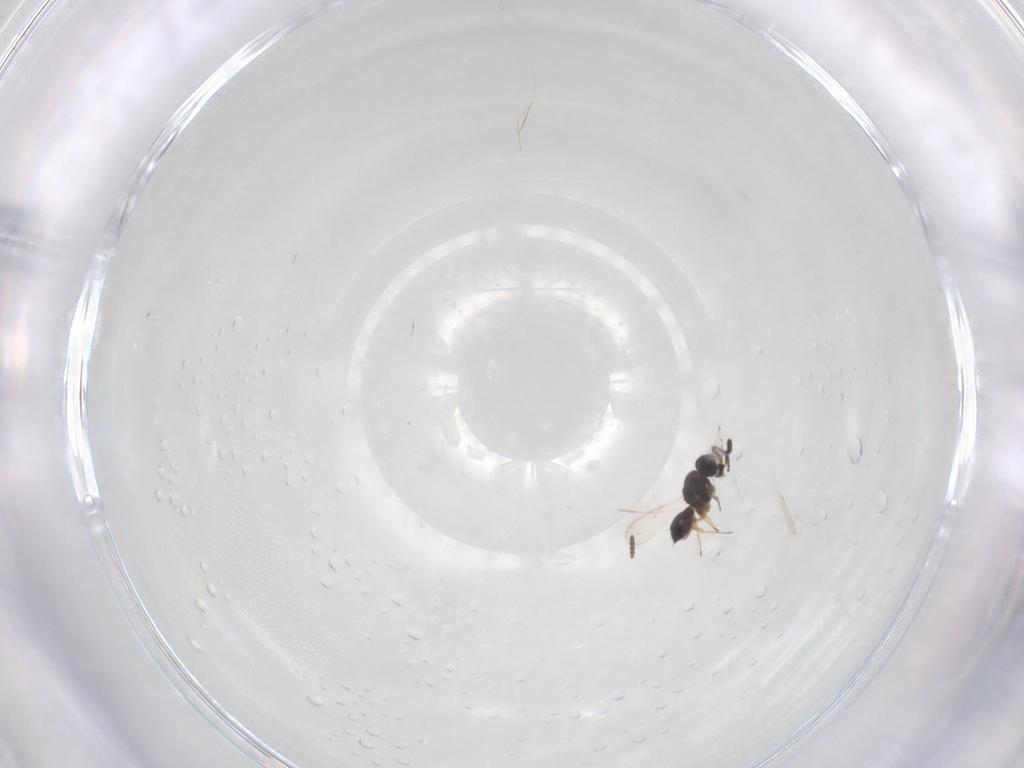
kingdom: Animalia
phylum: Arthropoda
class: Insecta
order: Hymenoptera
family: Scelionidae
